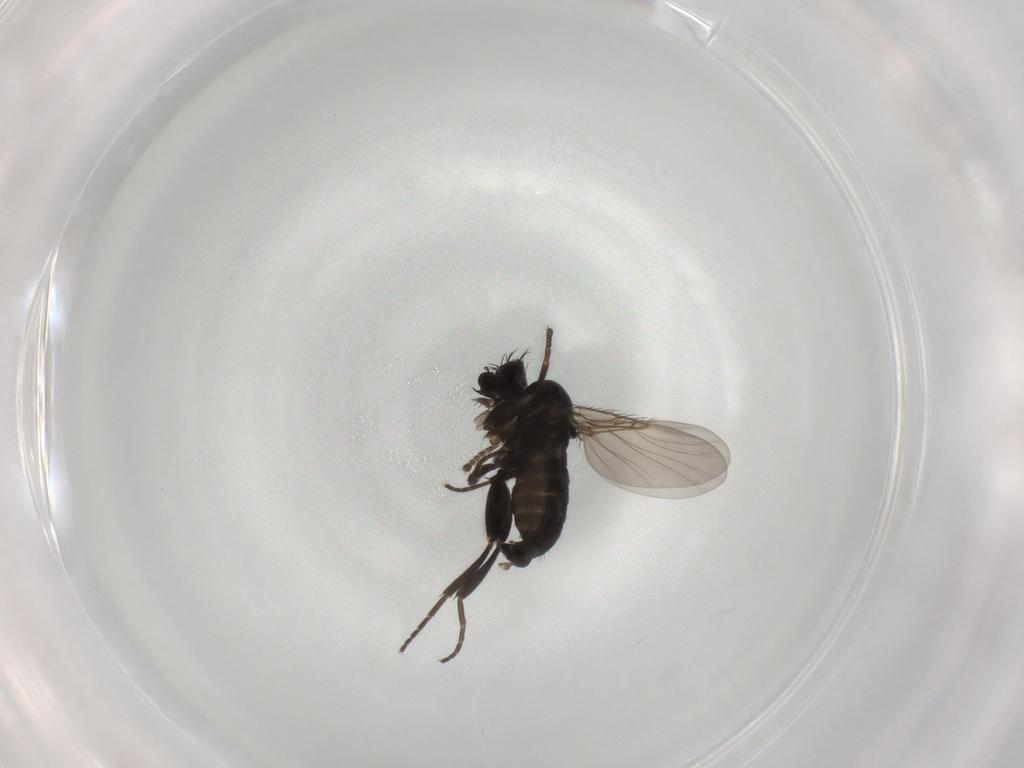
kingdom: Animalia
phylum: Arthropoda
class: Insecta
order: Diptera
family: Phoridae
